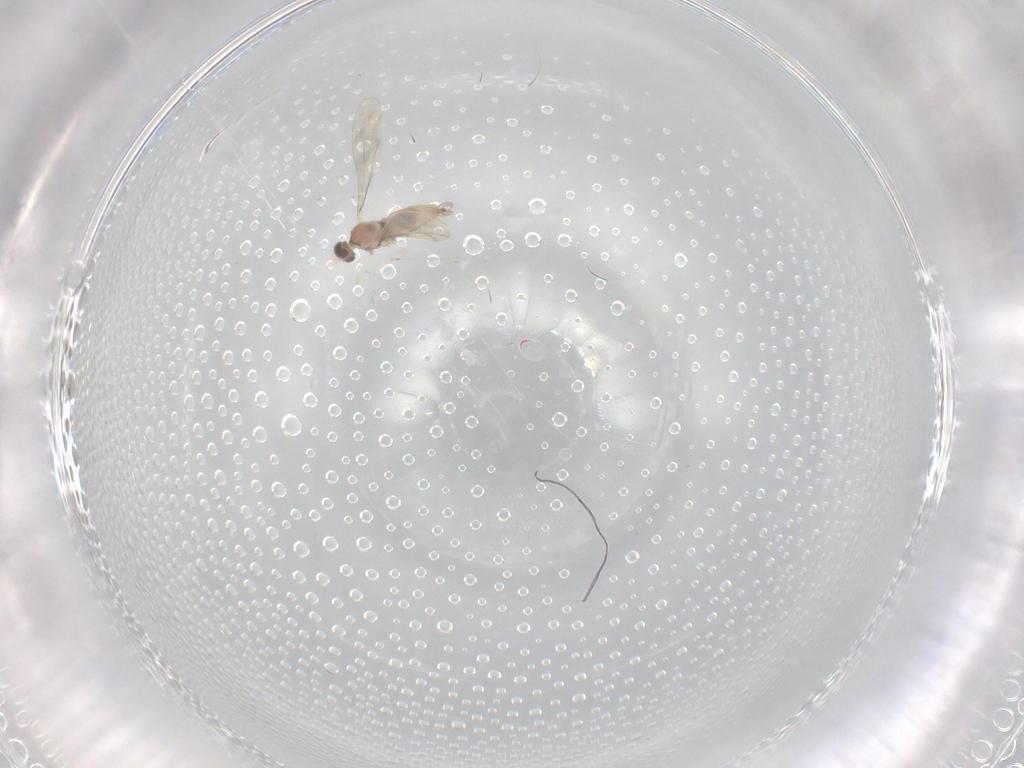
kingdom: Animalia
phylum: Arthropoda
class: Insecta
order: Diptera
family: Cecidomyiidae
